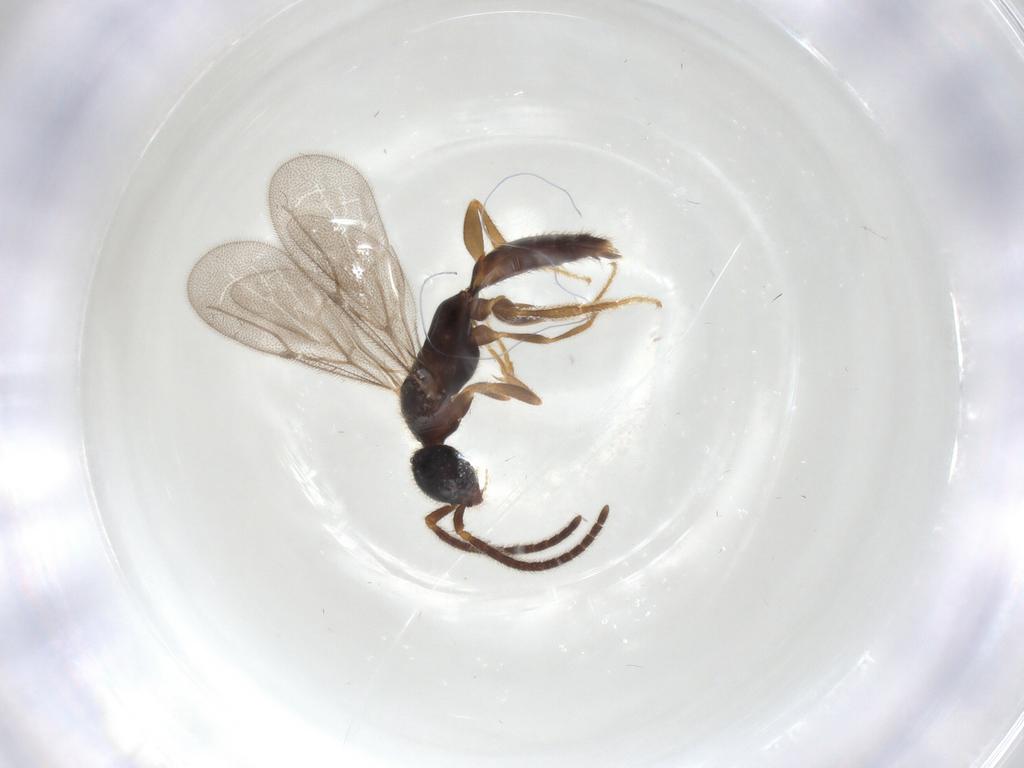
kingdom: Animalia
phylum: Arthropoda
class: Insecta
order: Hymenoptera
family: Bethylidae
